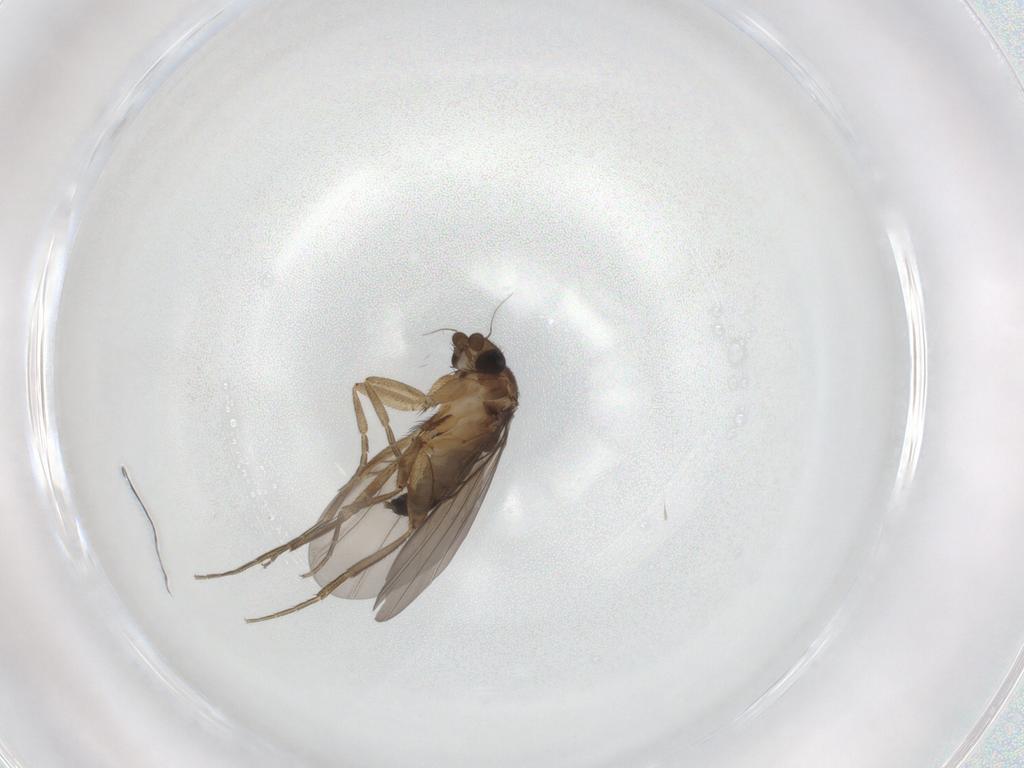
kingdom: Animalia
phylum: Arthropoda
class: Insecta
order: Diptera
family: Phoridae
